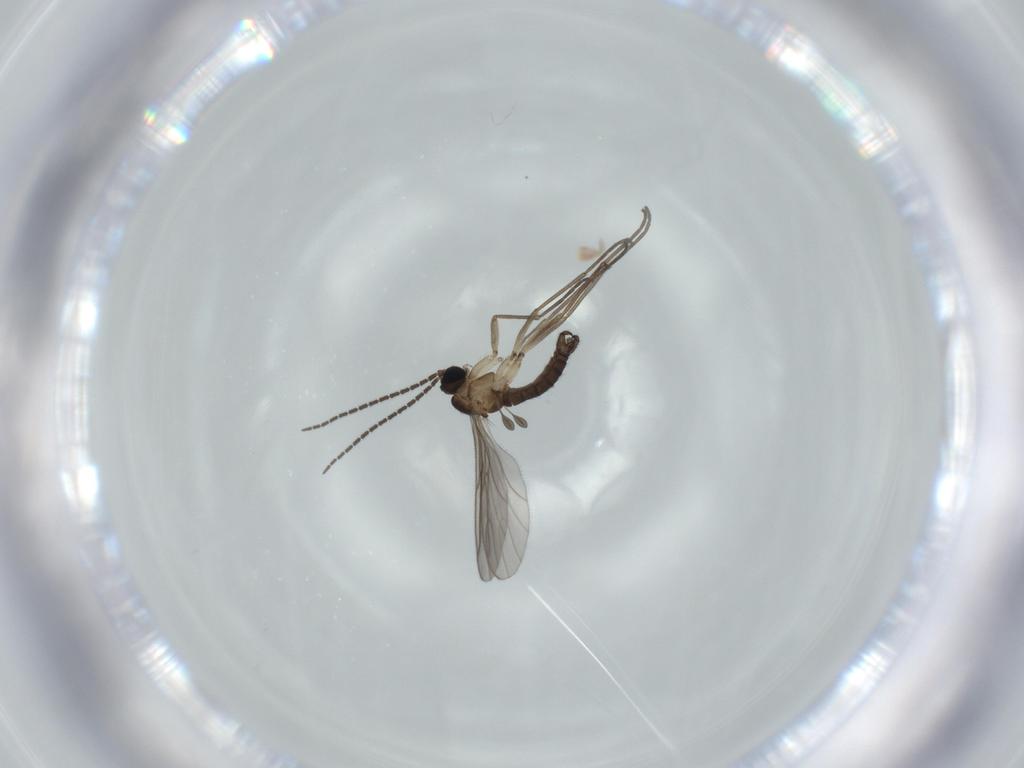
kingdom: Animalia
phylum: Arthropoda
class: Insecta
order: Diptera
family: Sciaridae
